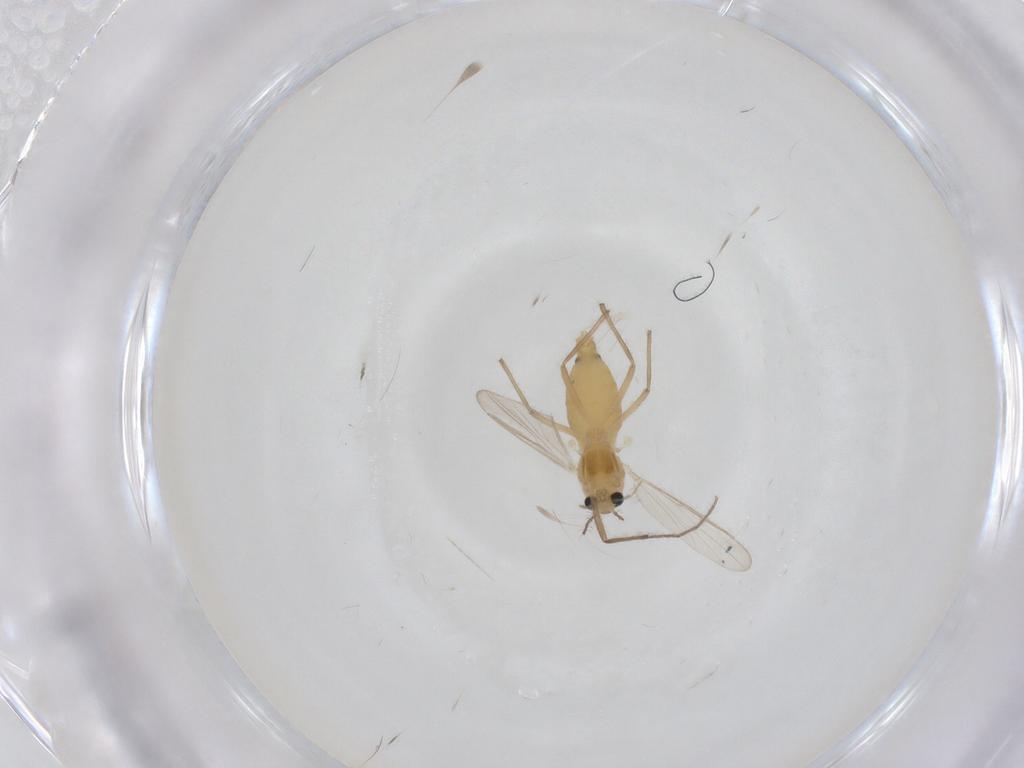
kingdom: Animalia
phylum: Arthropoda
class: Insecta
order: Diptera
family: Chironomidae
